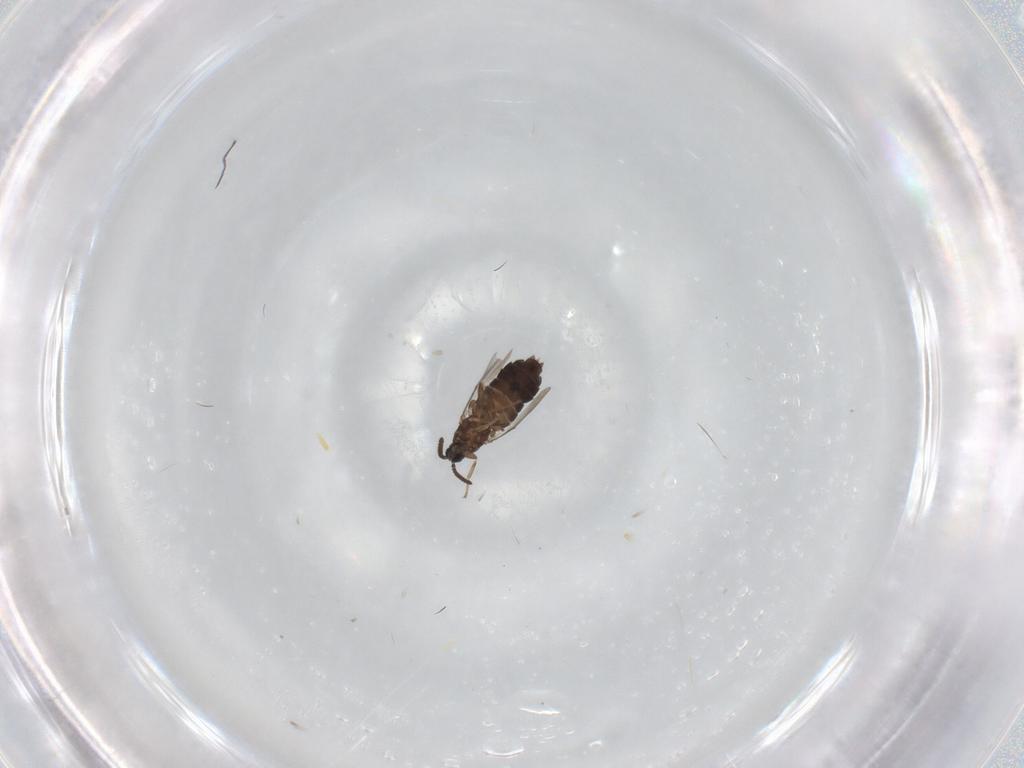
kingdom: Animalia
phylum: Arthropoda
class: Insecta
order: Diptera
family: Scatopsidae
